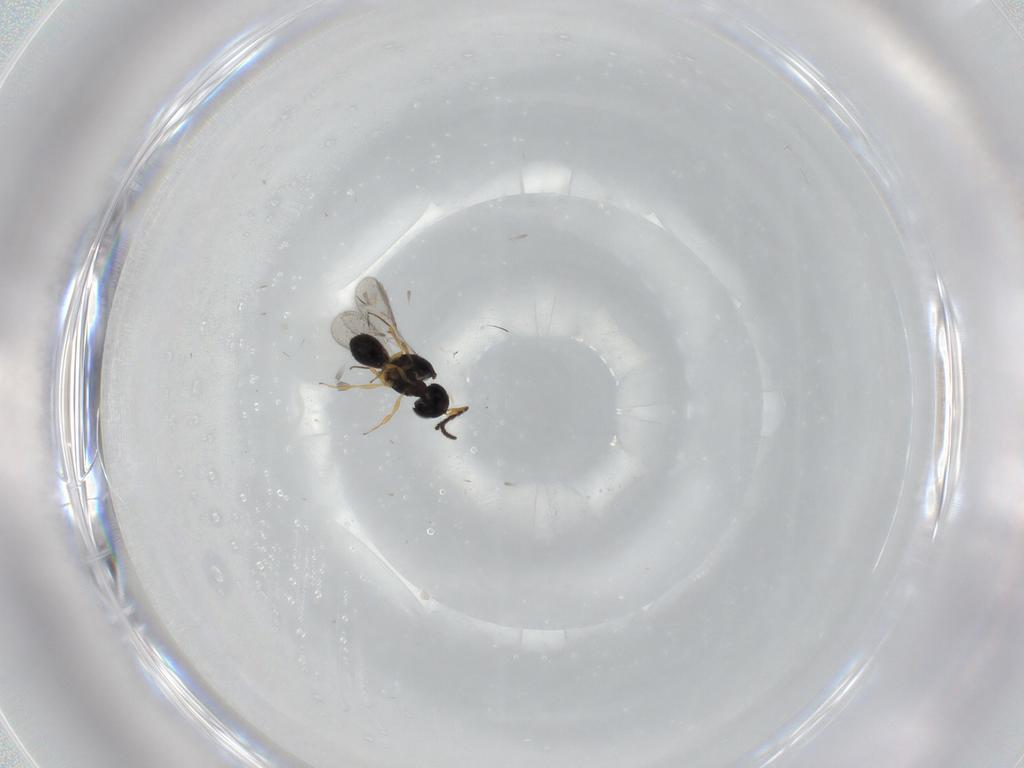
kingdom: Animalia
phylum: Arthropoda
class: Insecta
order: Hymenoptera
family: Scelionidae
